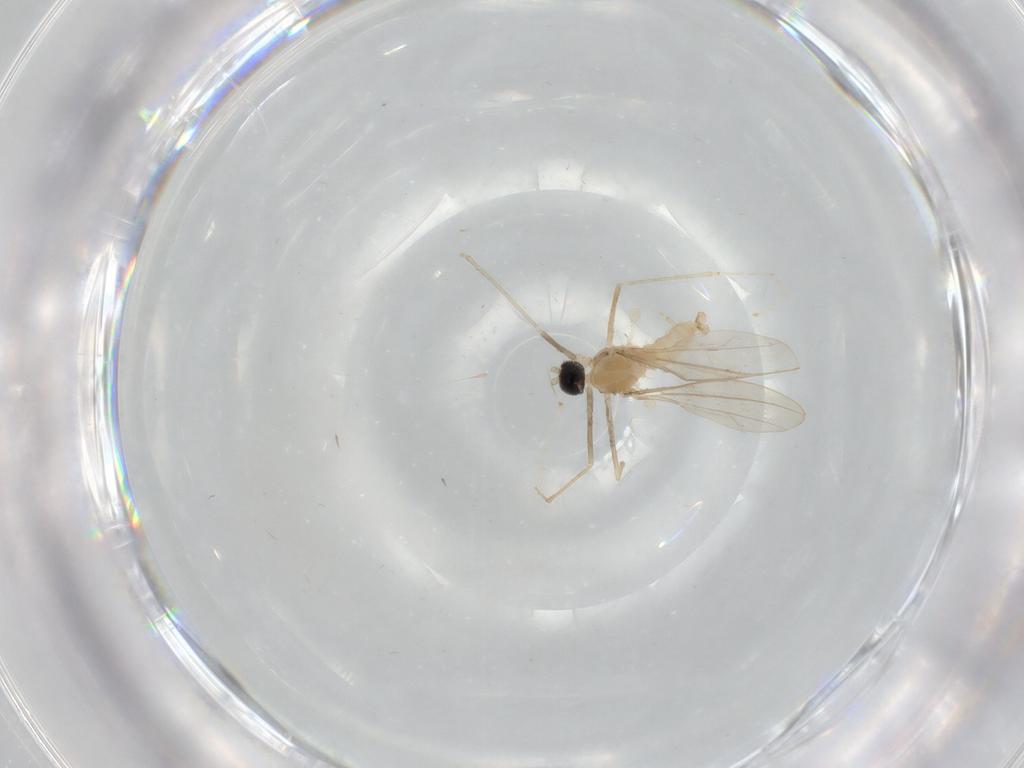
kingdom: Animalia
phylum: Arthropoda
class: Insecta
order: Diptera
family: Cecidomyiidae
